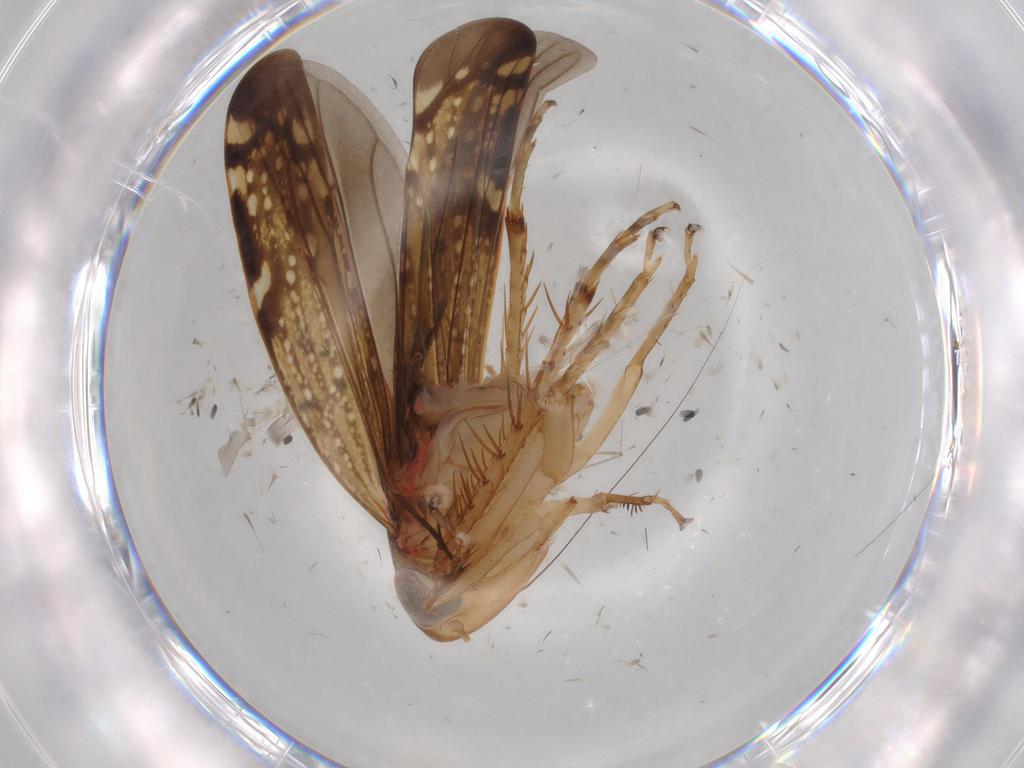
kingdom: Animalia
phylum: Arthropoda
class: Insecta
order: Hemiptera
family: Cicadellidae
